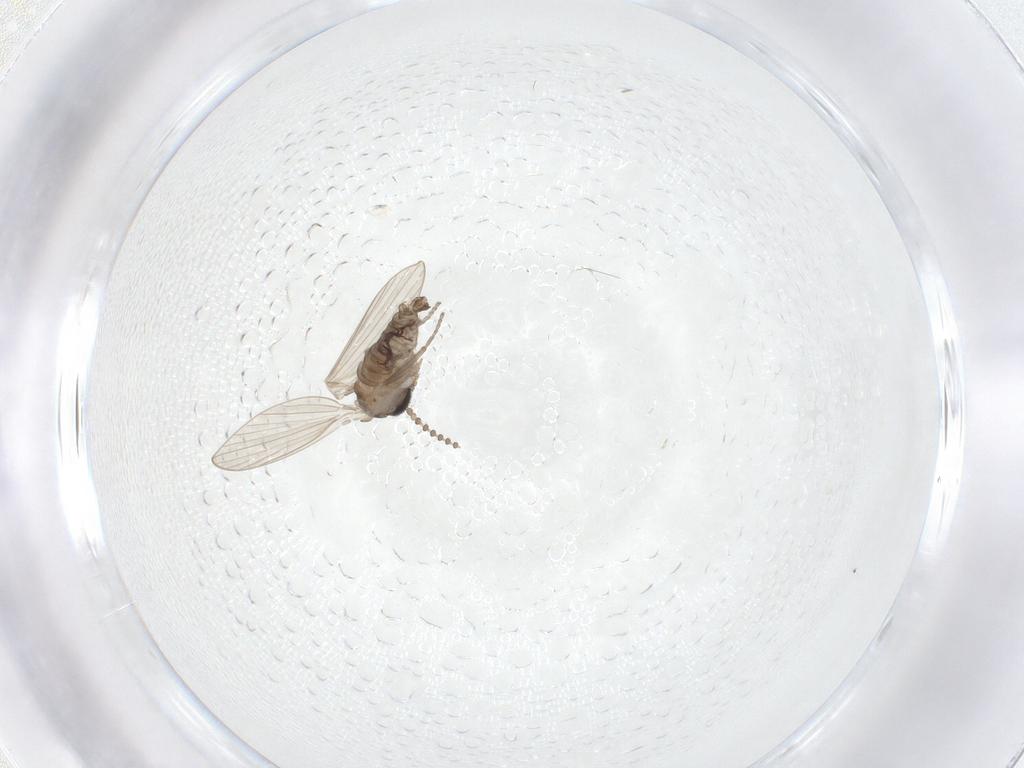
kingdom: Animalia
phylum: Arthropoda
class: Insecta
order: Diptera
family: Psychodidae
